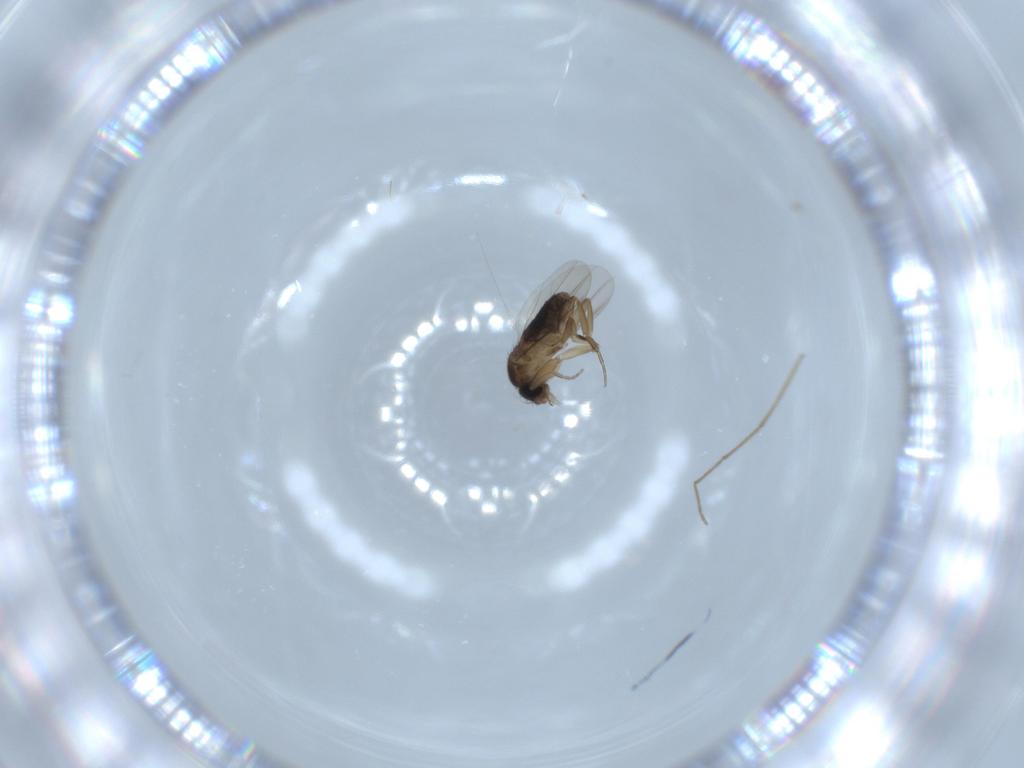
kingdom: Animalia
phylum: Arthropoda
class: Insecta
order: Diptera
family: Phoridae
